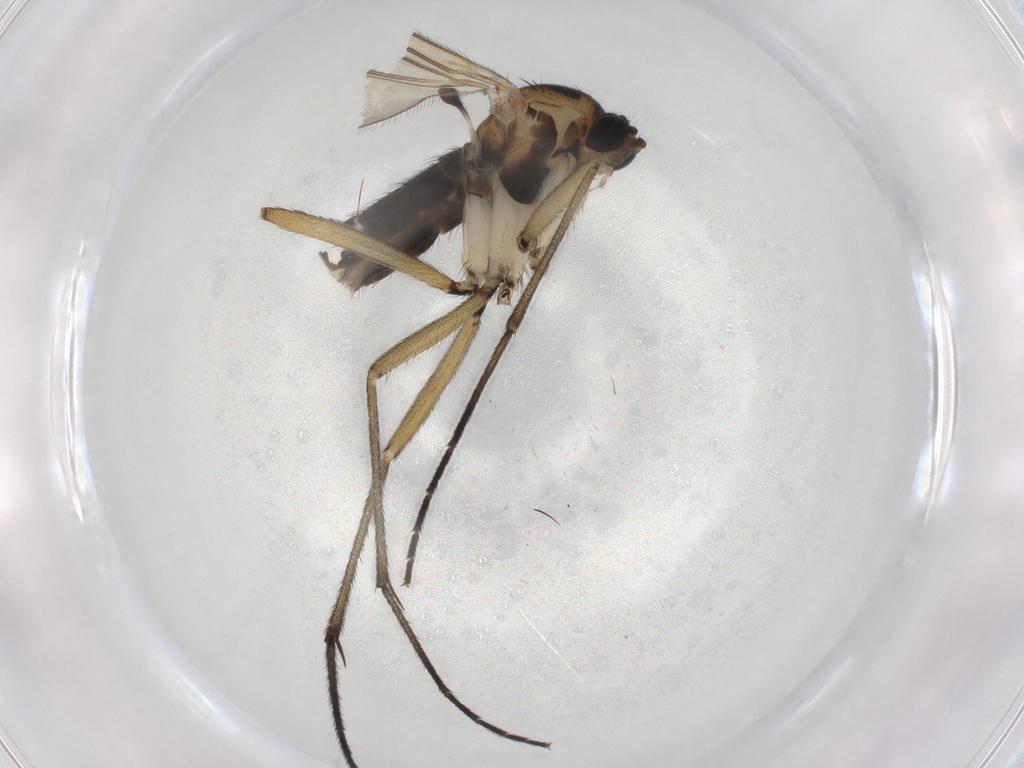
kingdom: Animalia
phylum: Arthropoda
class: Insecta
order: Diptera
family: Sciaridae
